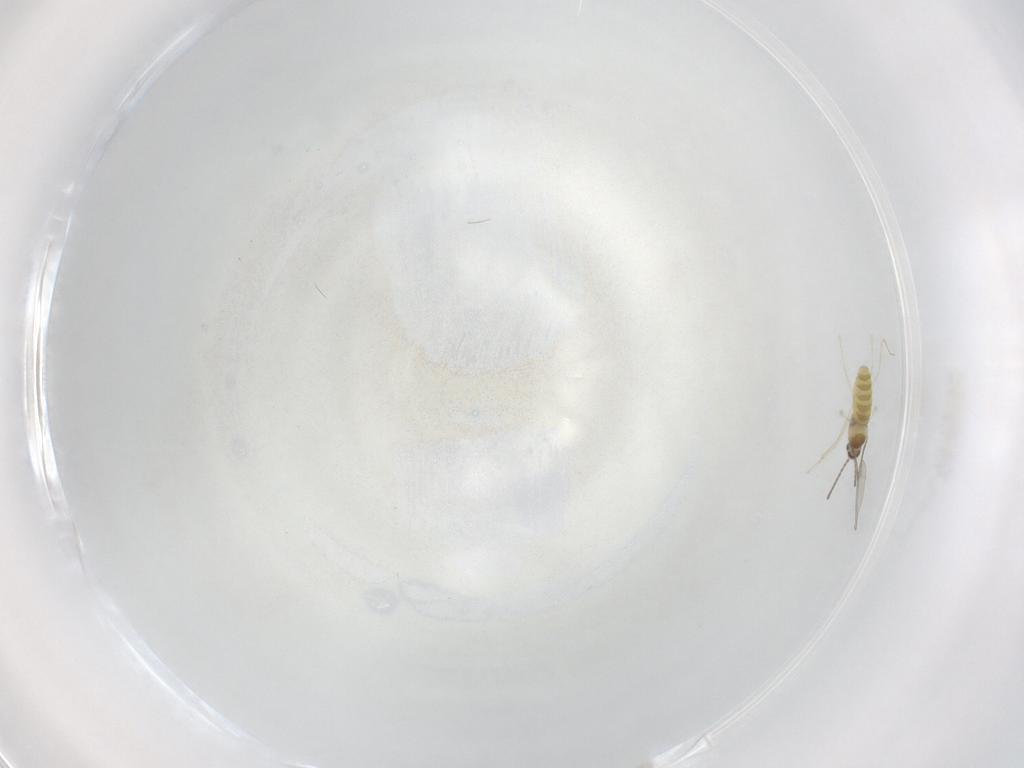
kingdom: Animalia
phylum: Arthropoda
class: Insecta
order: Diptera
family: Cecidomyiidae
